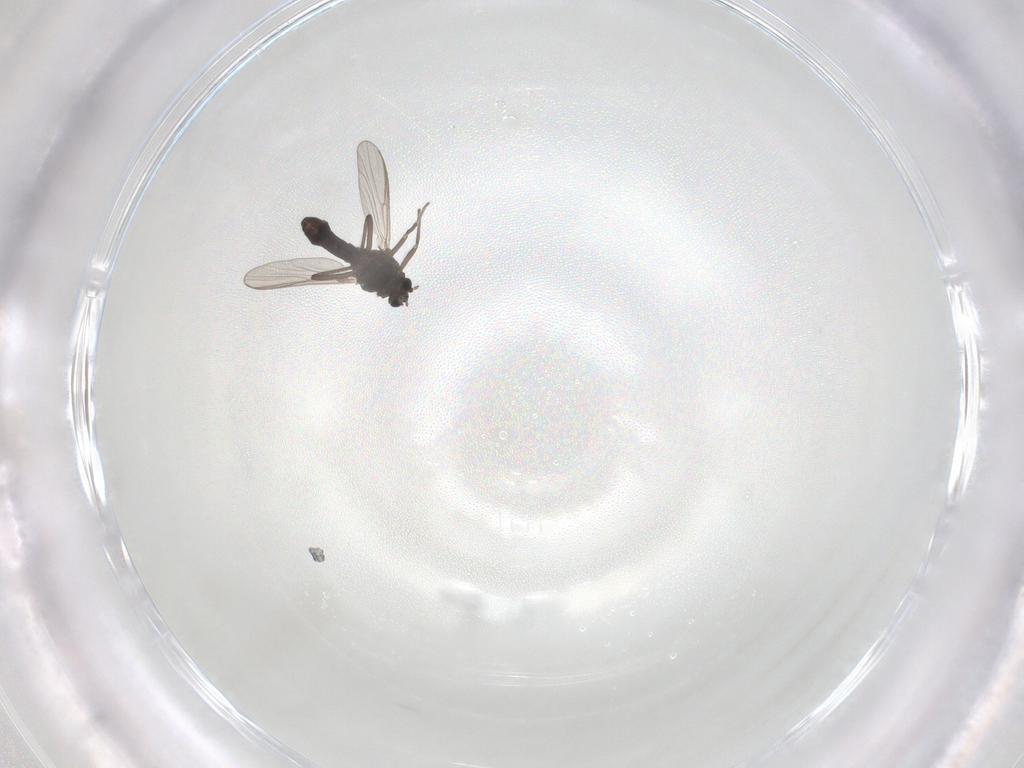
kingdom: Animalia
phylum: Arthropoda
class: Insecta
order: Diptera
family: Chironomidae
